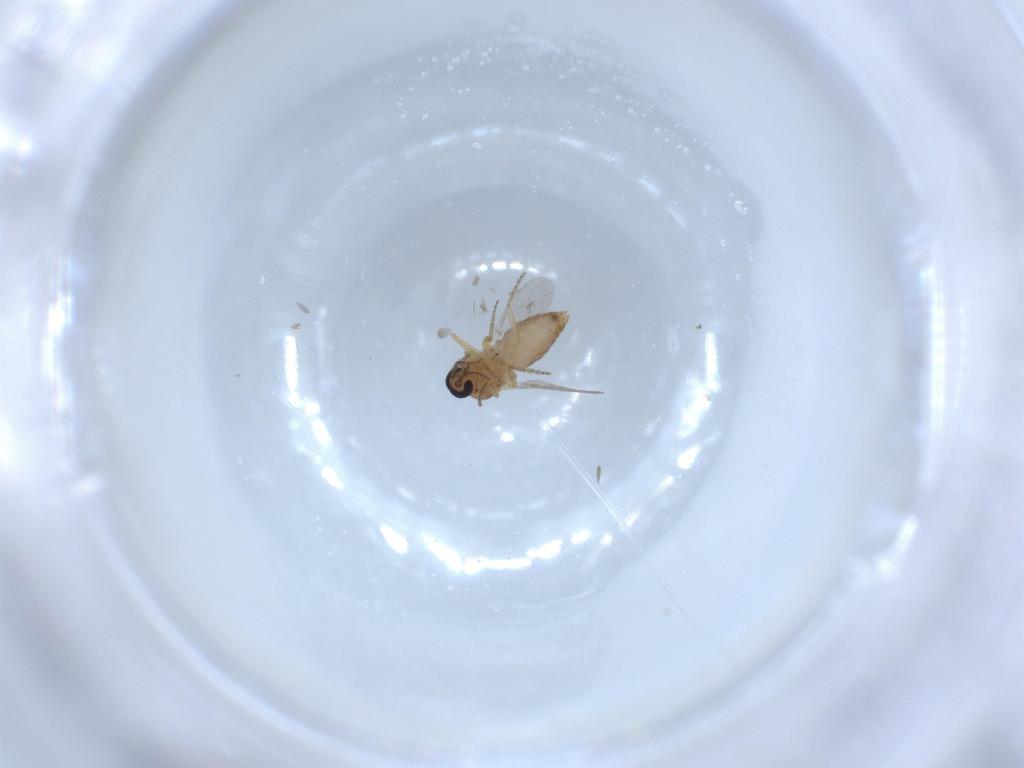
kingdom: Animalia
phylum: Arthropoda
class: Insecta
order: Diptera
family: Ceratopogonidae
